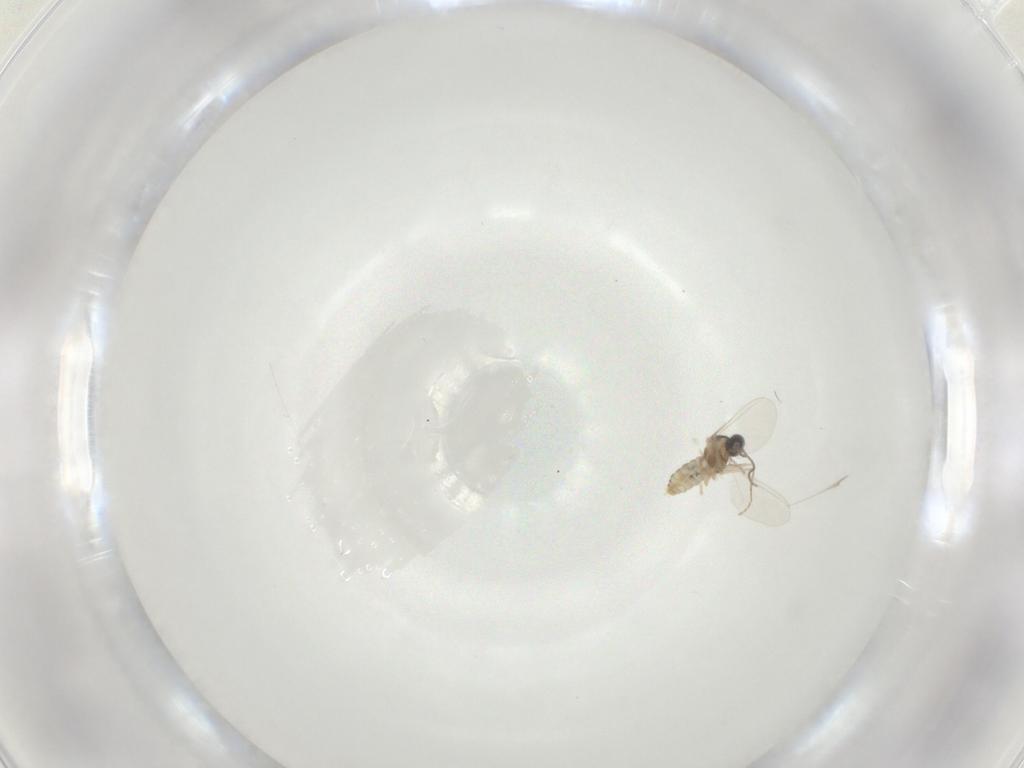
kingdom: Animalia
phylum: Arthropoda
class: Insecta
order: Diptera
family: Cecidomyiidae
